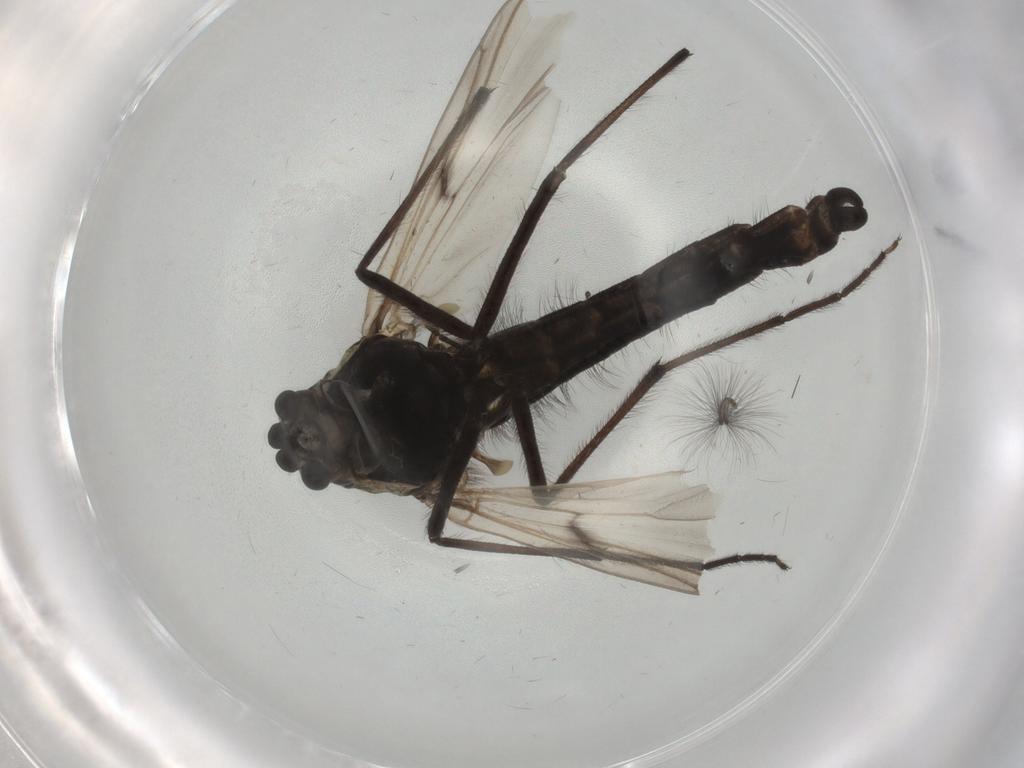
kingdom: Animalia
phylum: Arthropoda
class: Insecta
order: Diptera
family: Chironomidae
